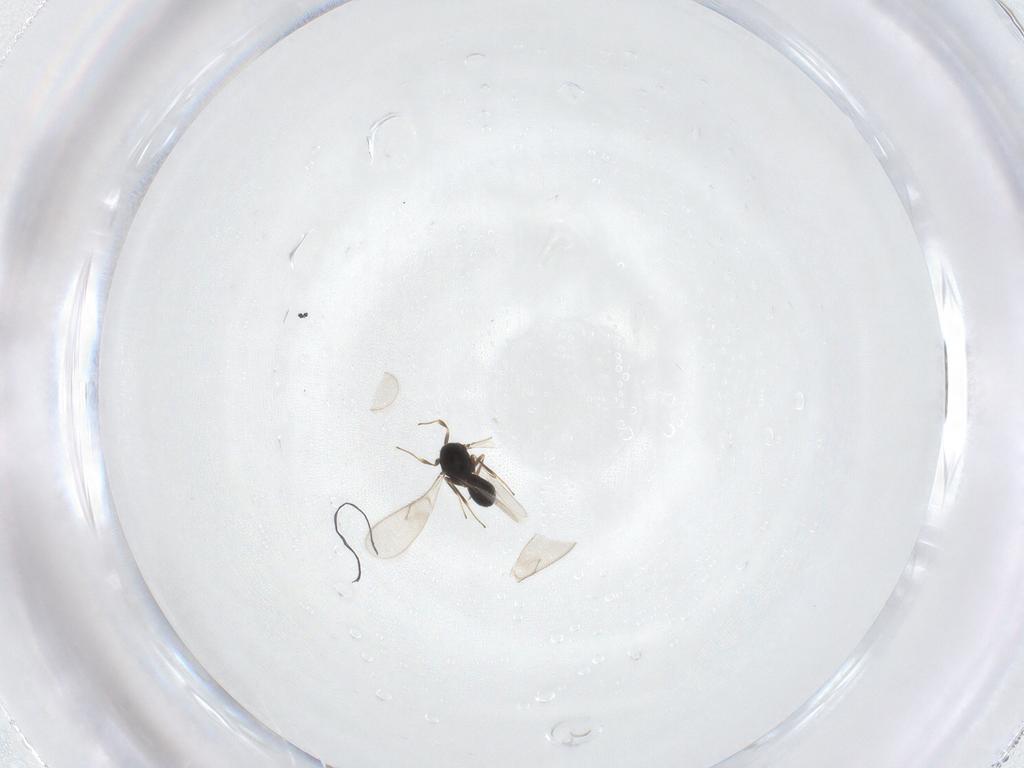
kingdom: Animalia
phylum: Arthropoda
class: Insecta
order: Hymenoptera
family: Scelionidae
